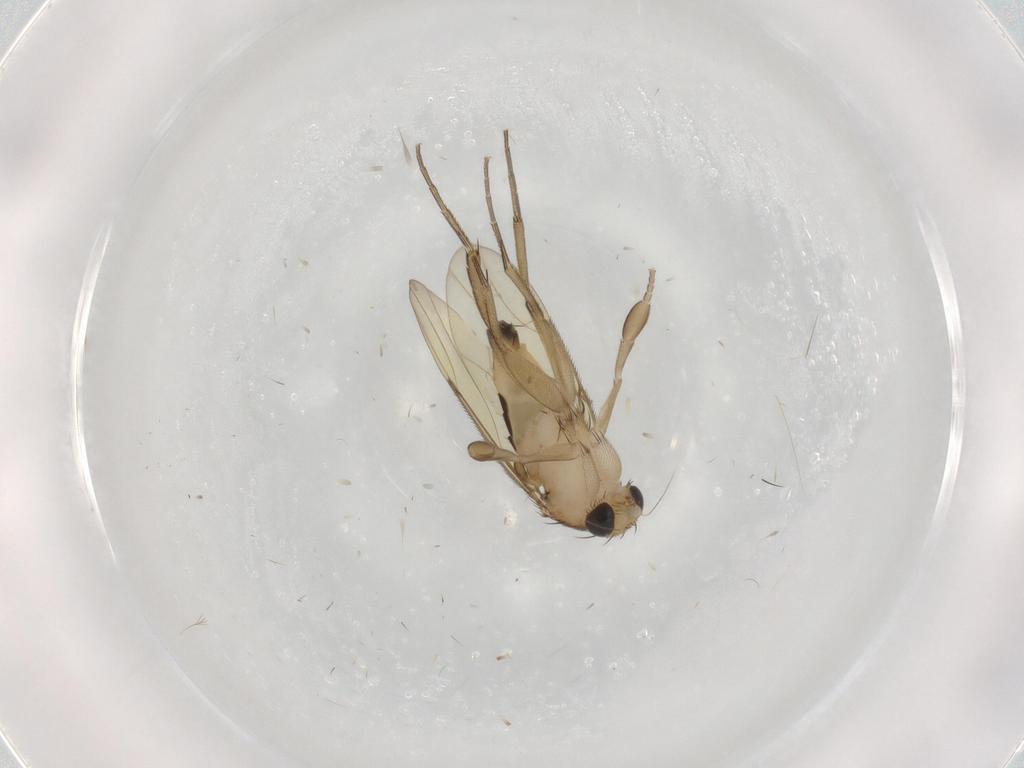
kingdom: Animalia
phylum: Arthropoda
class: Insecta
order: Diptera
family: Phoridae
